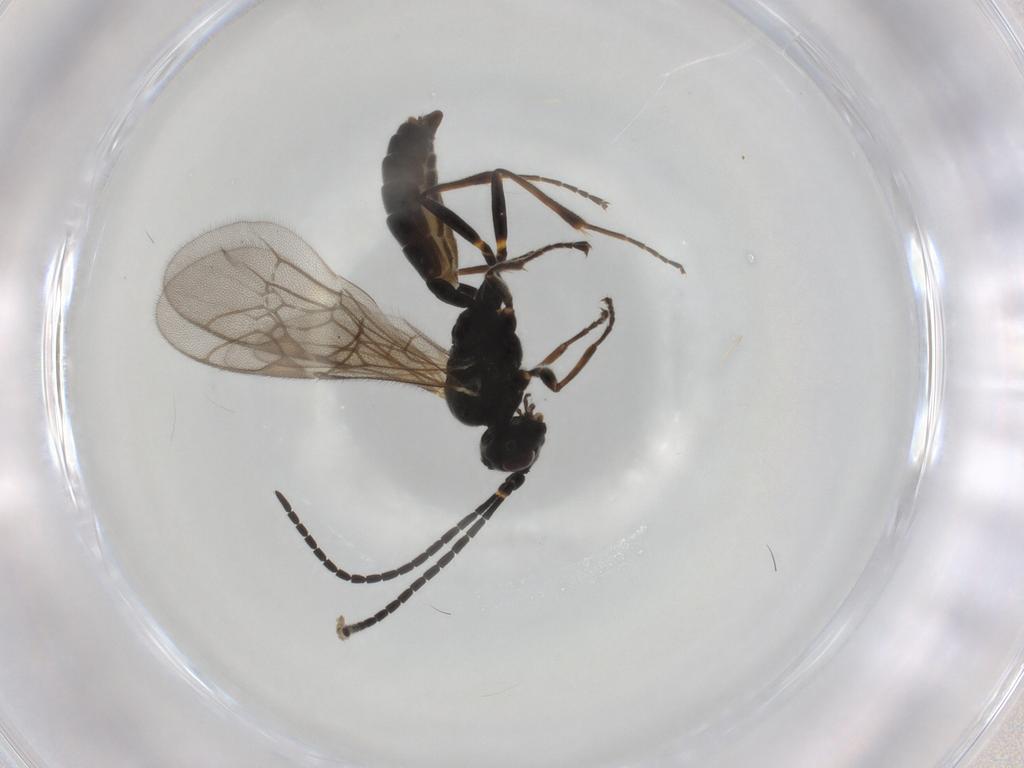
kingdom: Animalia
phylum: Arthropoda
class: Insecta
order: Hymenoptera
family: Ichneumonidae
